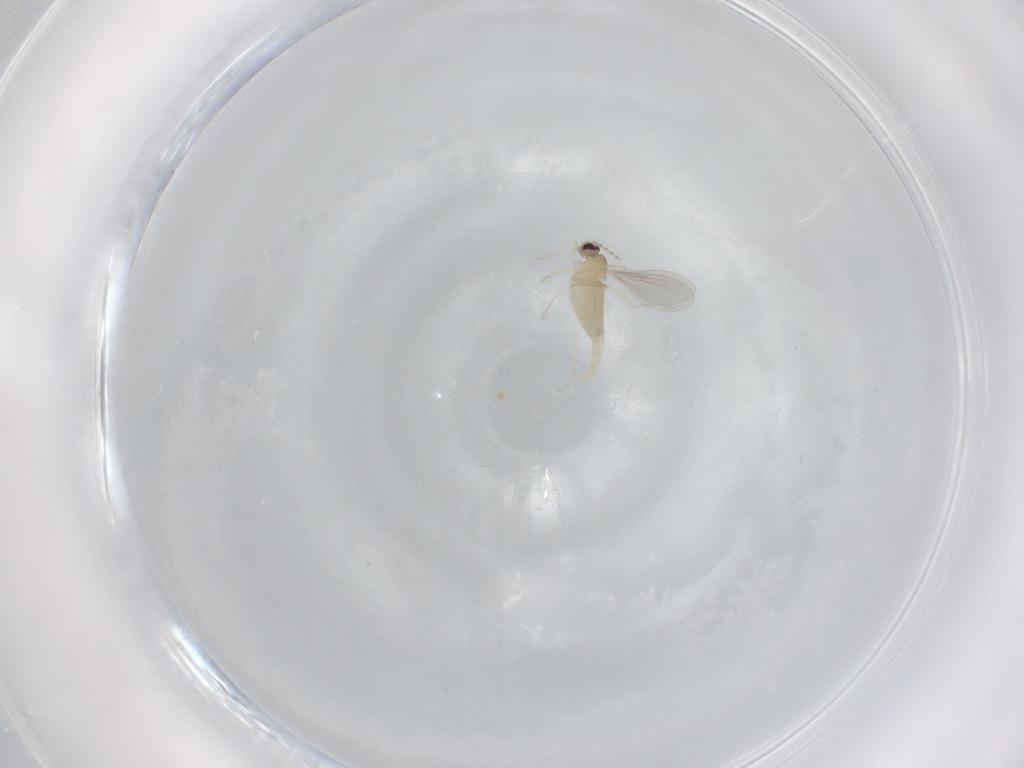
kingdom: Animalia
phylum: Arthropoda
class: Insecta
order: Diptera
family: Cecidomyiidae
